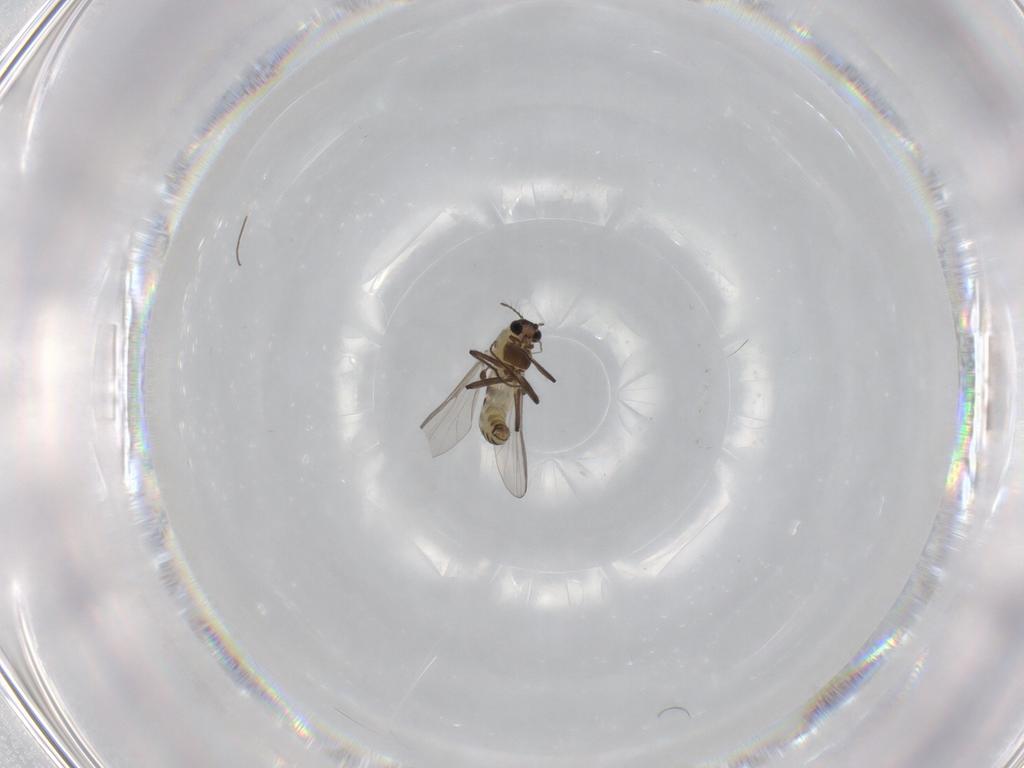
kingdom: Animalia
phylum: Arthropoda
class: Insecta
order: Diptera
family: Chironomidae
